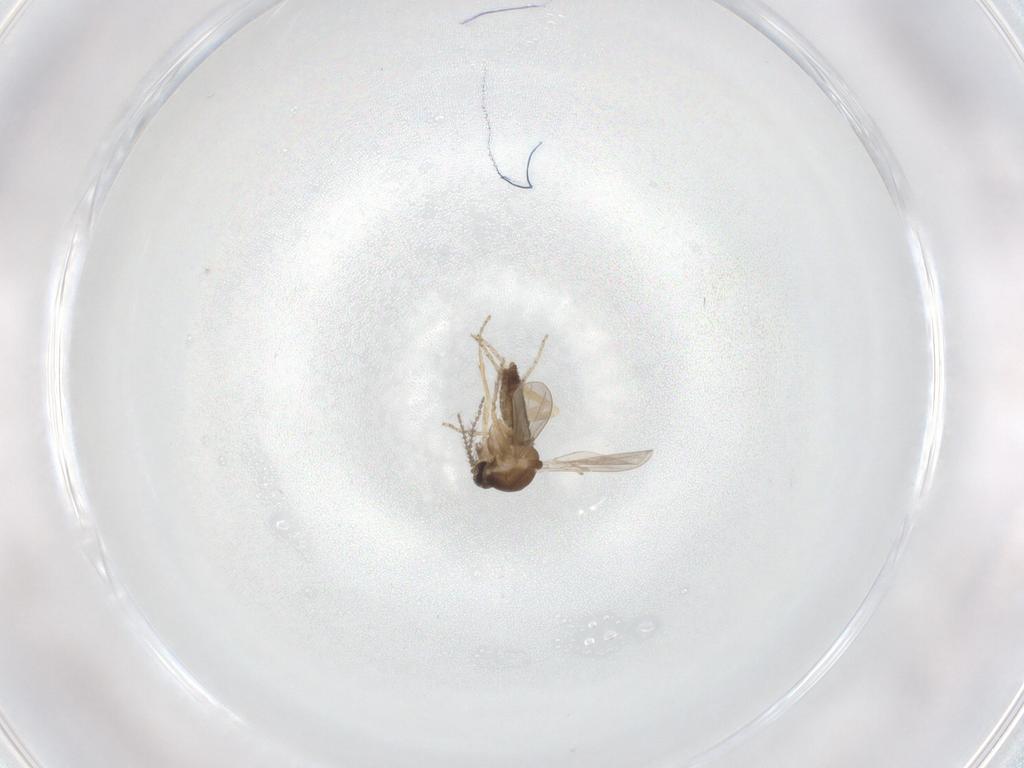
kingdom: Animalia
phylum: Arthropoda
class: Insecta
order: Diptera
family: Ceratopogonidae
